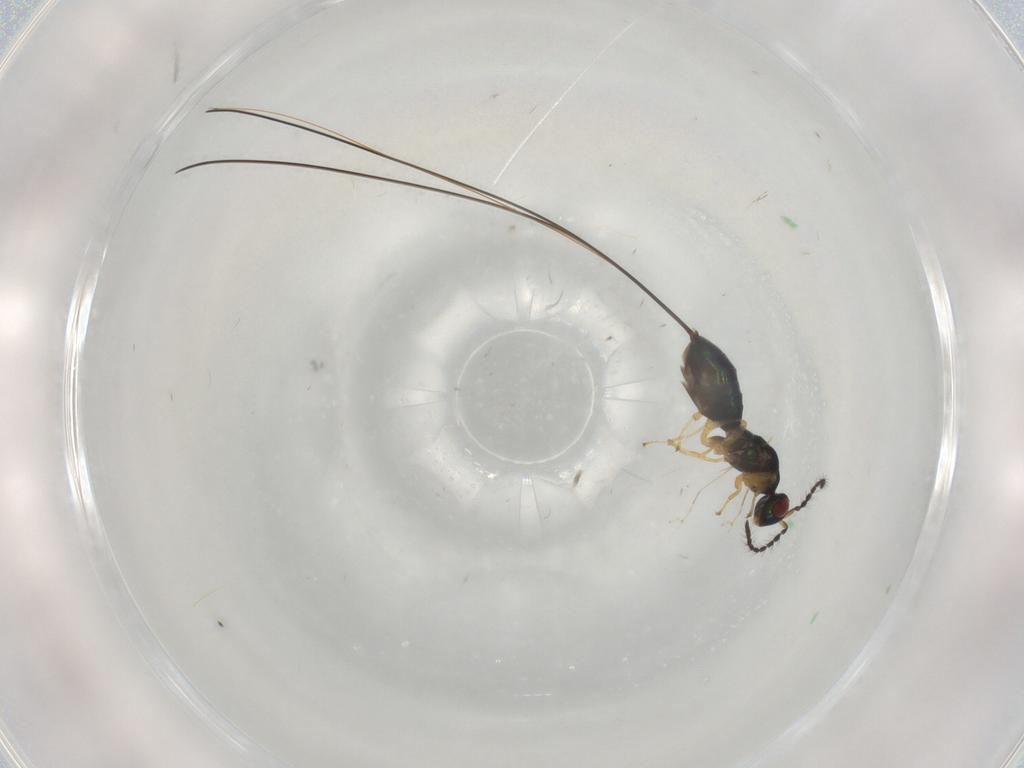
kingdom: Animalia
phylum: Arthropoda
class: Insecta
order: Hymenoptera
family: Pteromalidae
